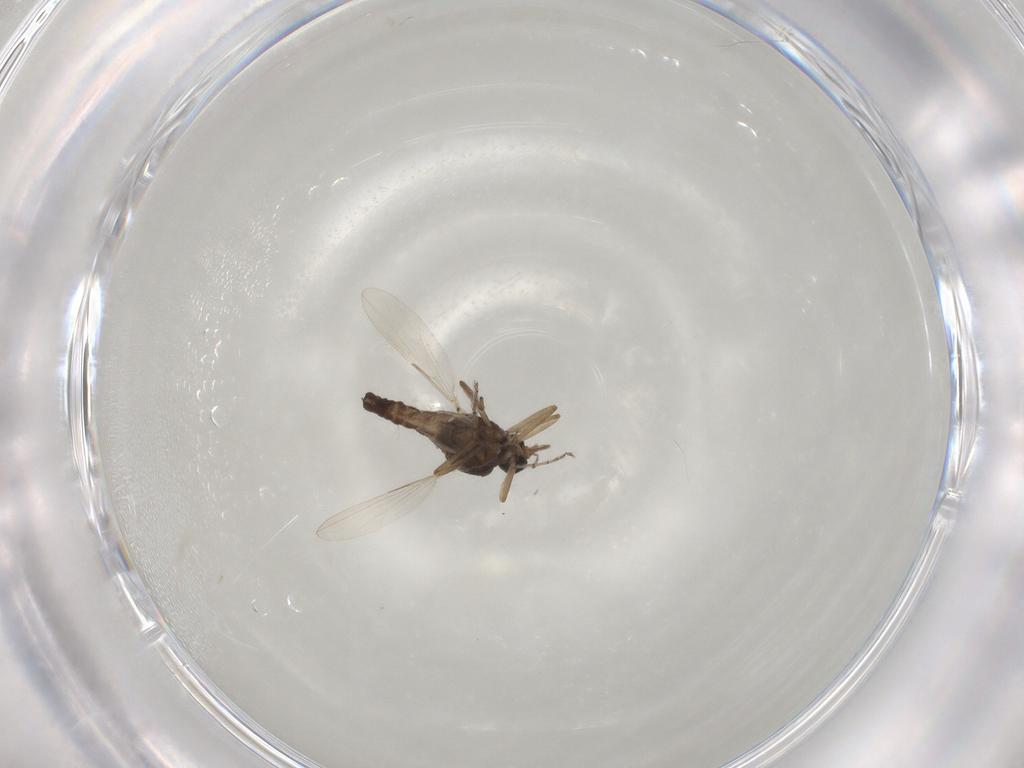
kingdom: Animalia
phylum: Arthropoda
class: Insecta
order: Diptera
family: Ceratopogonidae
